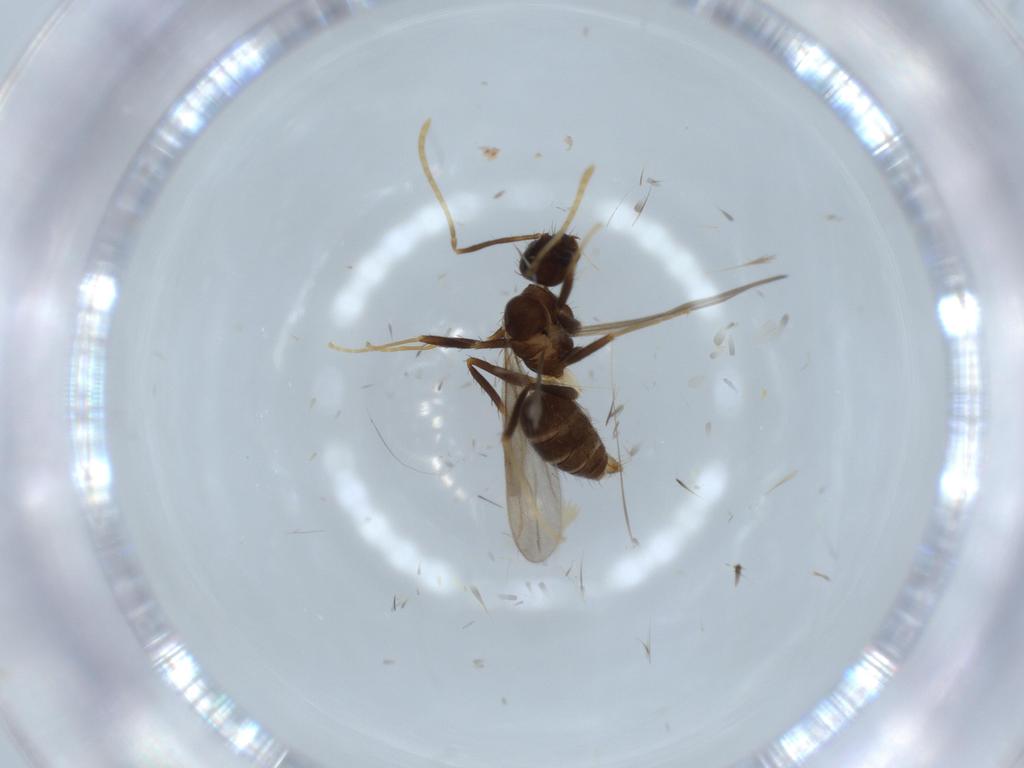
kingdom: Animalia
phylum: Arthropoda
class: Insecta
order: Hymenoptera
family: Formicidae
